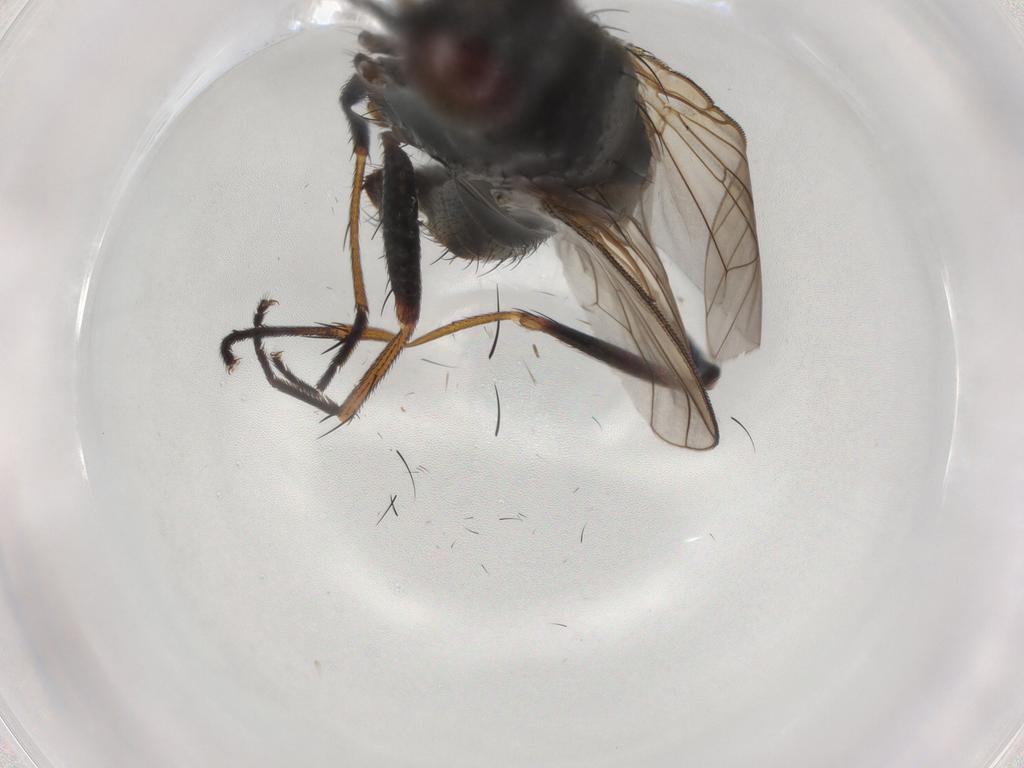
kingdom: Animalia
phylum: Arthropoda
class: Insecta
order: Diptera
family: Muscidae
